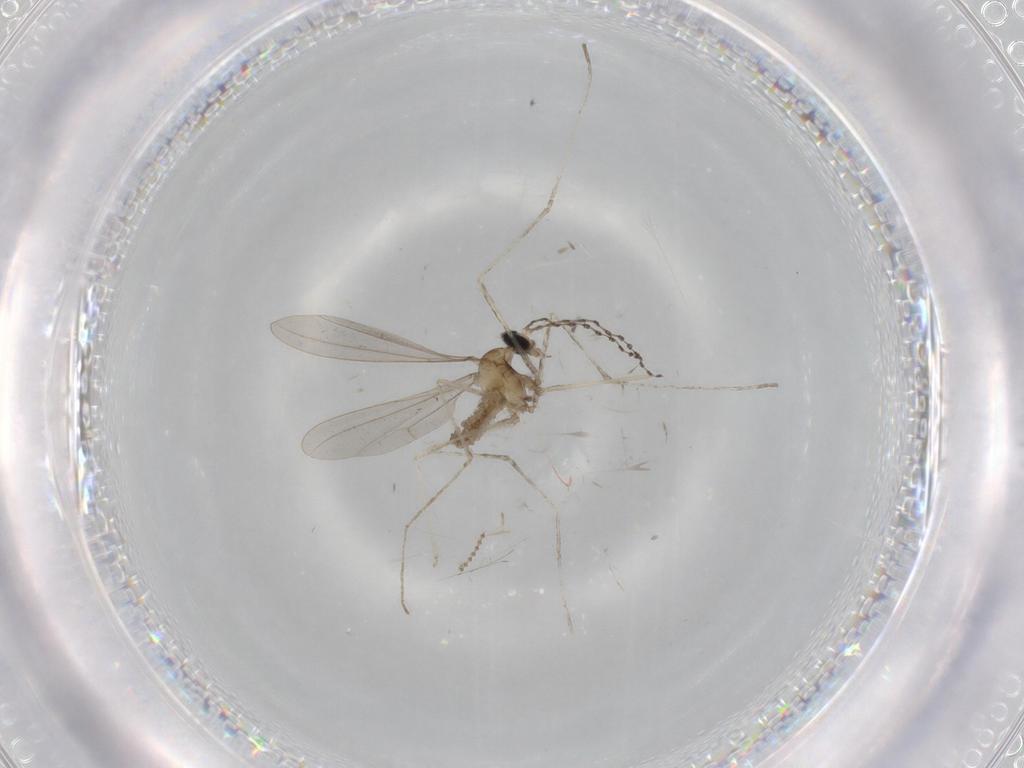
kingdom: Animalia
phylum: Arthropoda
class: Insecta
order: Diptera
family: Cecidomyiidae
